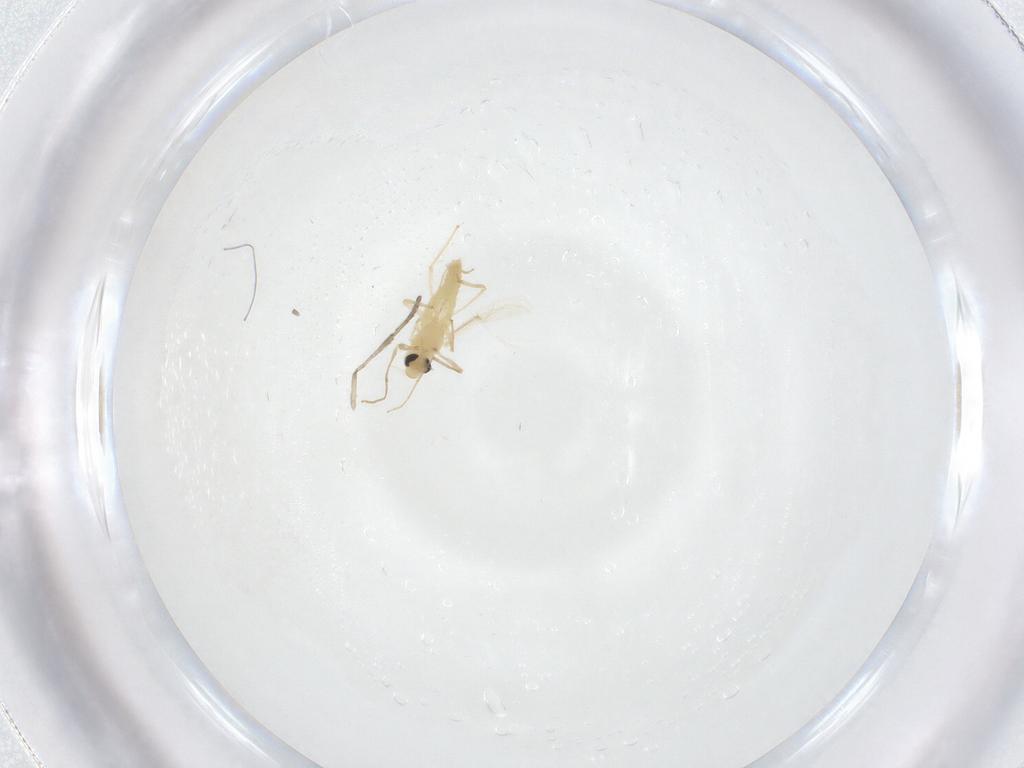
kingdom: Animalia
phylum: Arthropoda
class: Insecta
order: Diptera
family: Chironomidae
